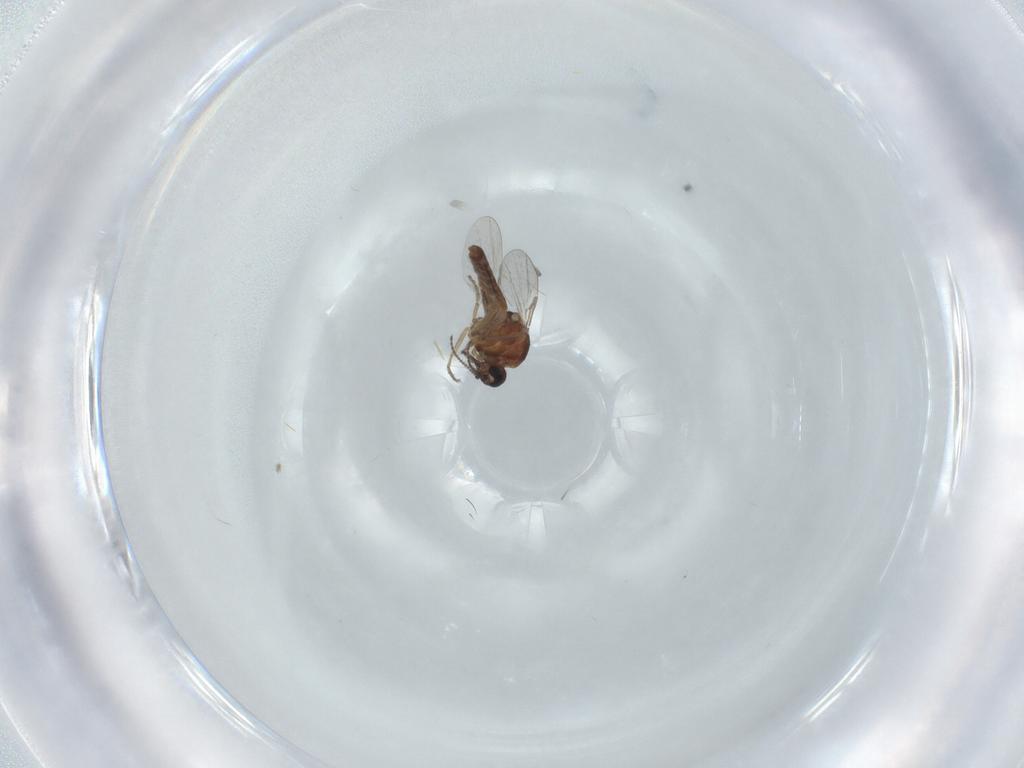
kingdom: Animalia
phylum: Arthropoda
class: Insecta
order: Diptera
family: Ceratopogonidae
